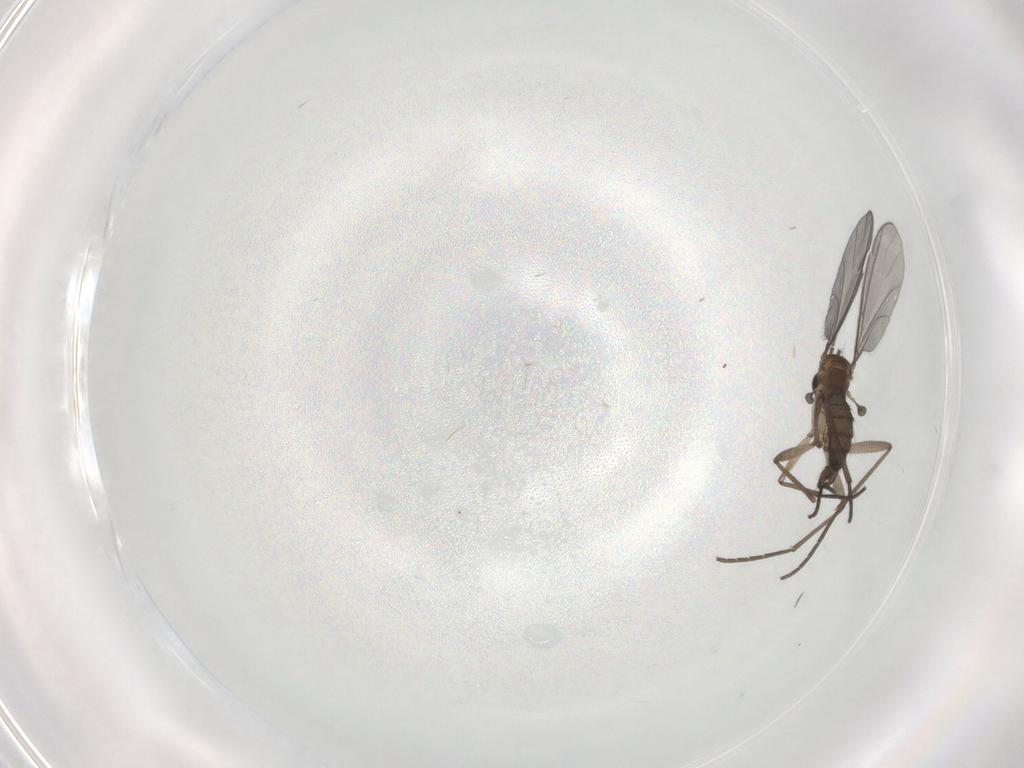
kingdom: Animalia
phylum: Arthropoda
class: Insecta
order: Diptera
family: Sciaridae
